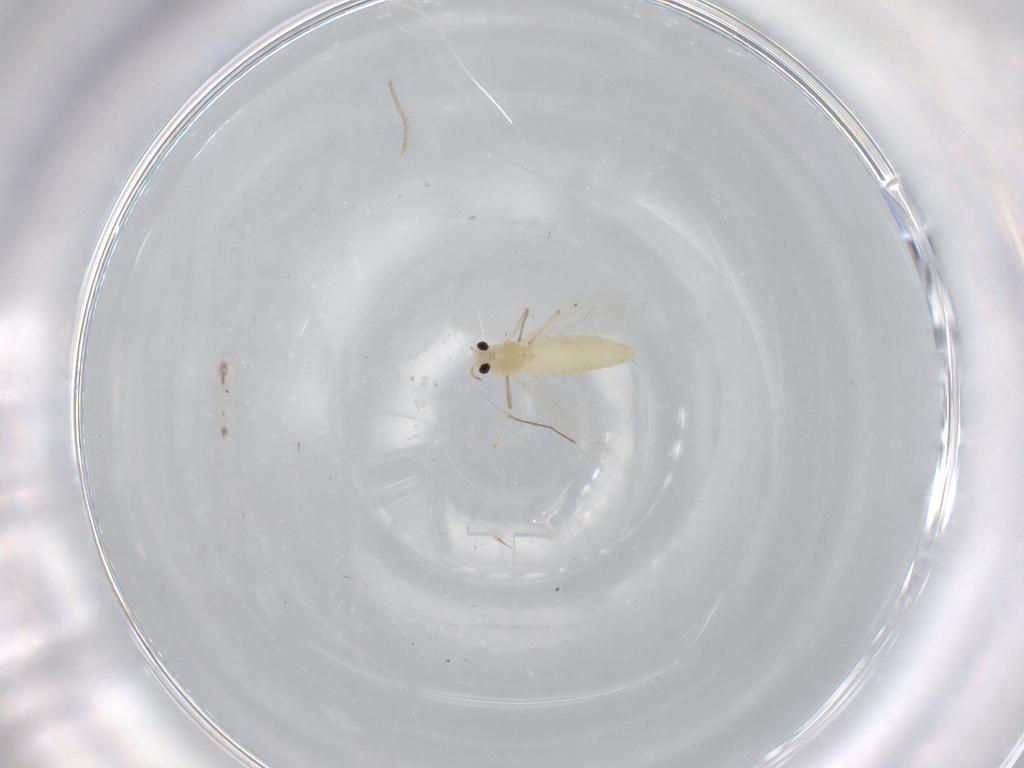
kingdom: Animalia
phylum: Arthropoda
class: Insecta
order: Diptera
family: Chironomidae
